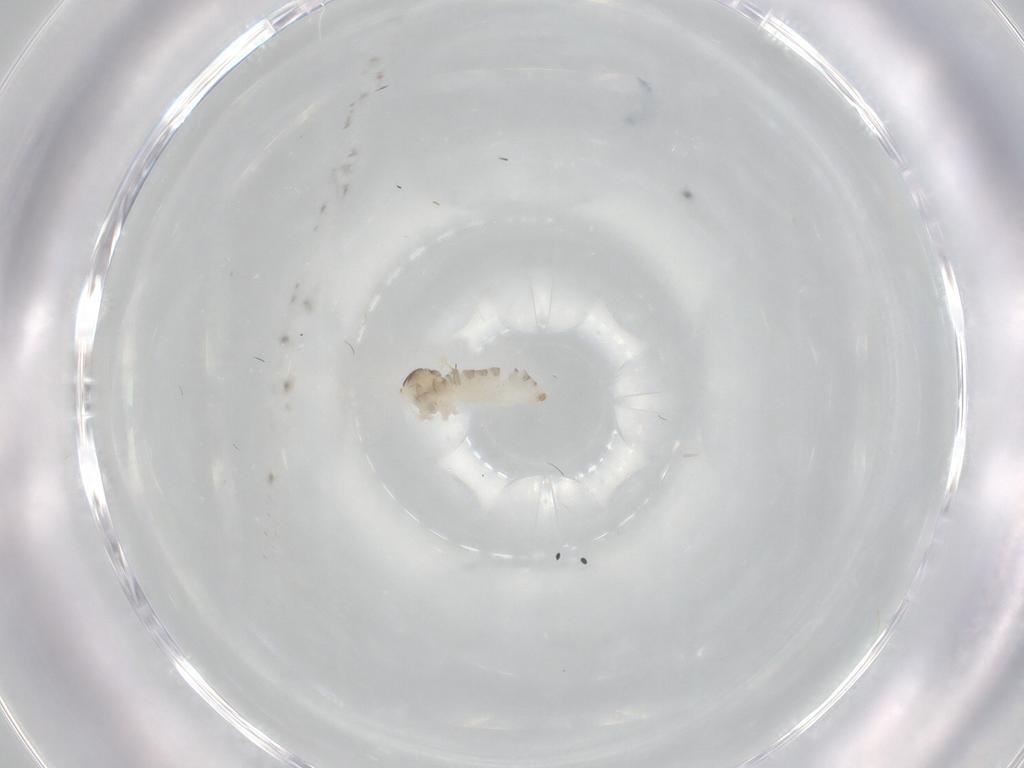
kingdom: Animalia
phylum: Arthropoda
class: Insecta
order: Diptera
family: Cecidomyiidae
